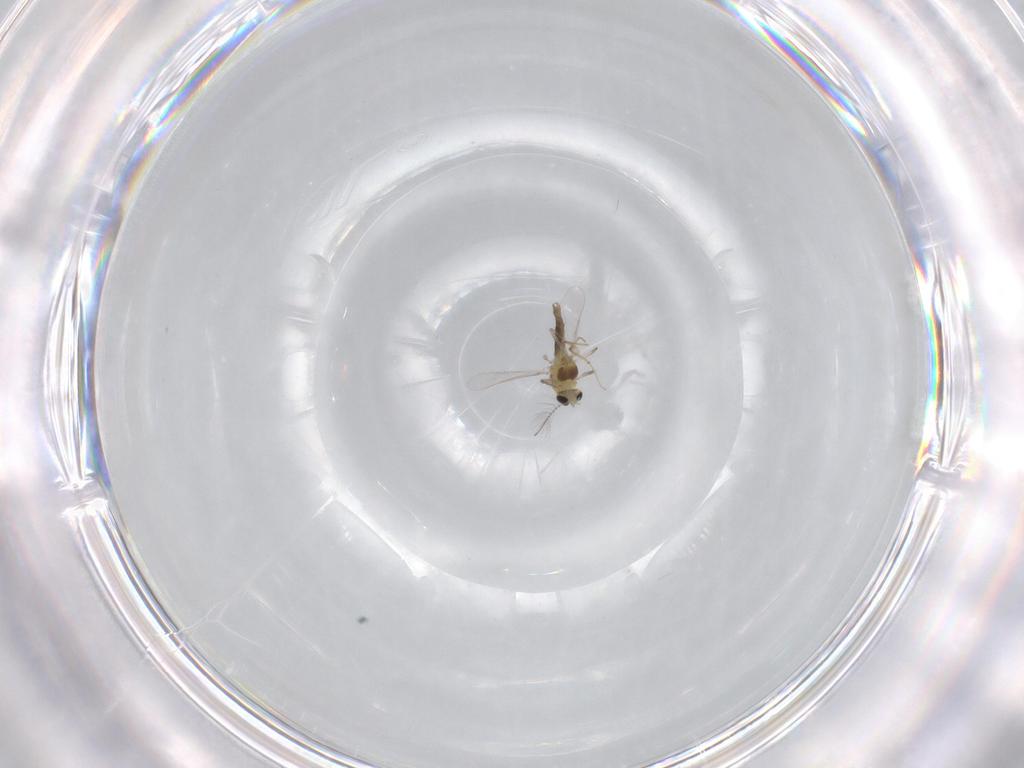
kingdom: Animalia
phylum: Arthropoda
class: Insecta
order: Diptera
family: Chironomidae
